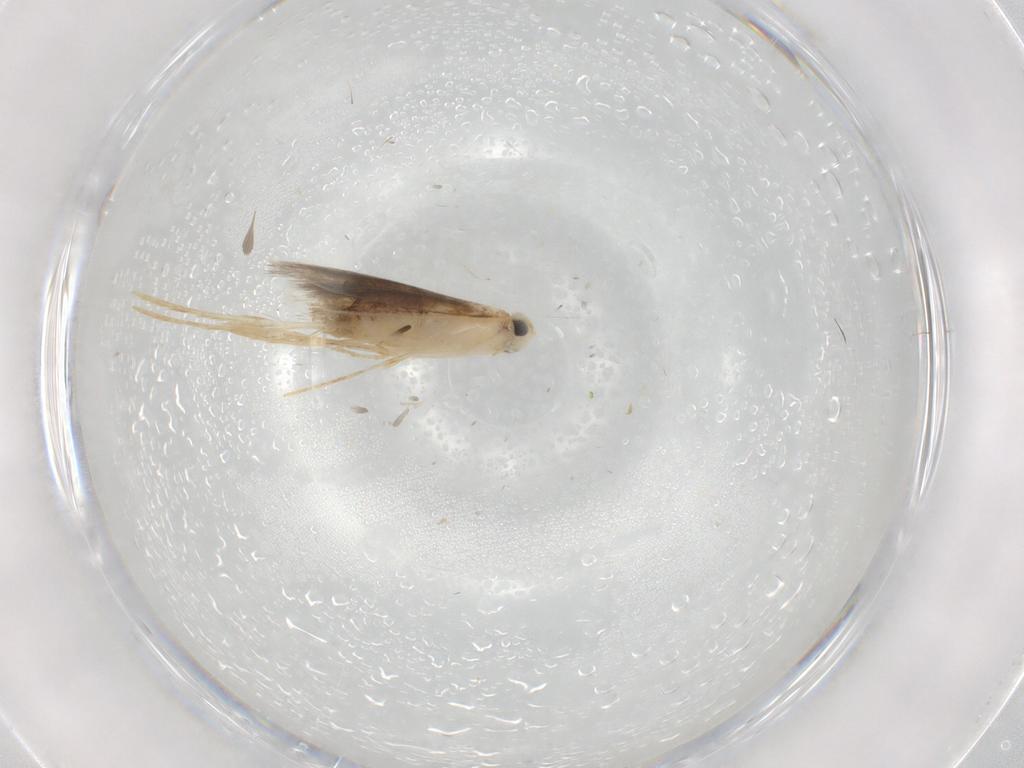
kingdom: Animalia
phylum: Arthropoda
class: Insecta
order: Lepidoptera
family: Lyonetiidae
